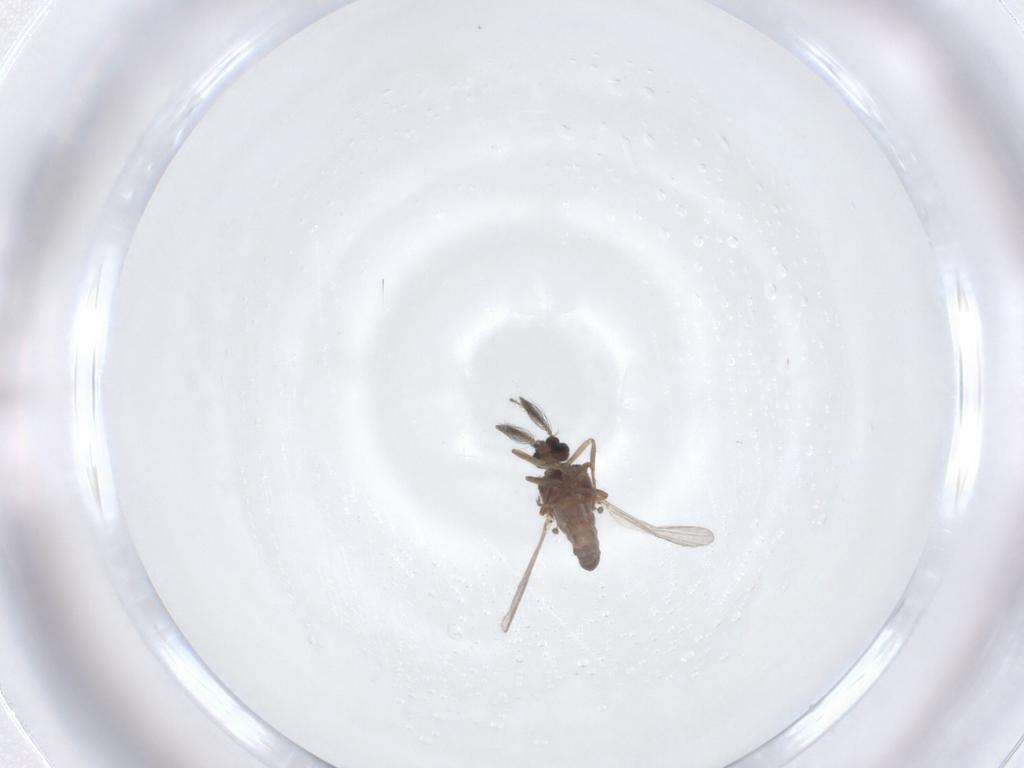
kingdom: Animalia
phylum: Arthropoda
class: Insecta
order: Diptera
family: Ceratopogonidae
